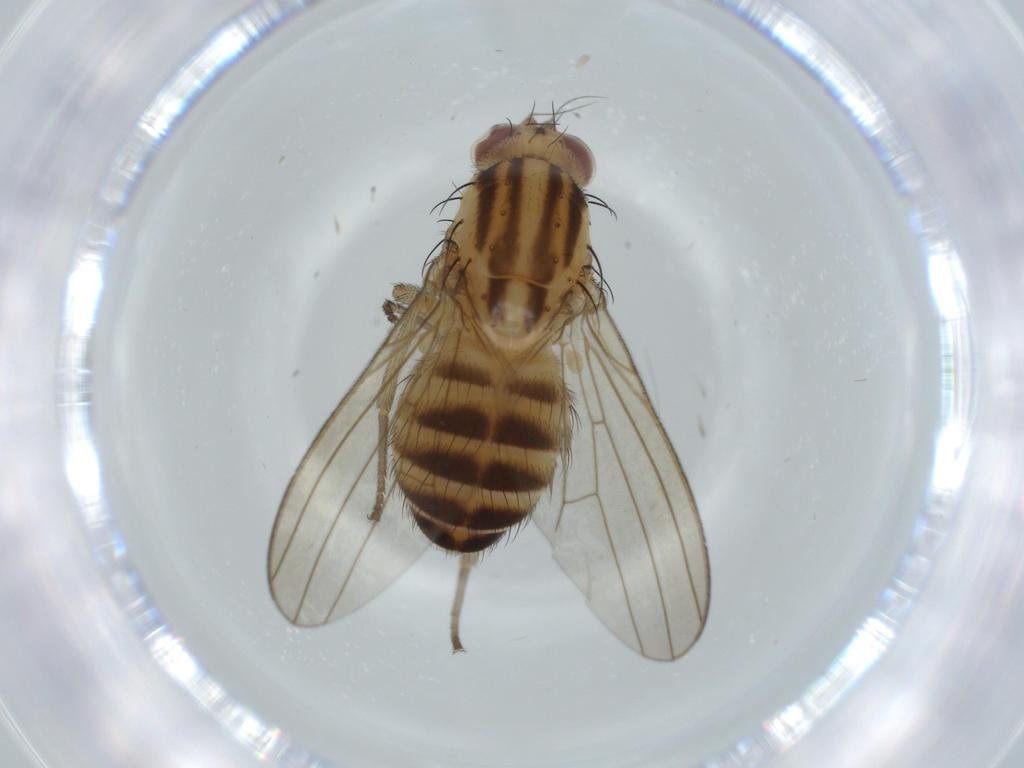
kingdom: Animalia
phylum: Arthropoda
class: Insecta
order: Diptera
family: Lauxaniidae
